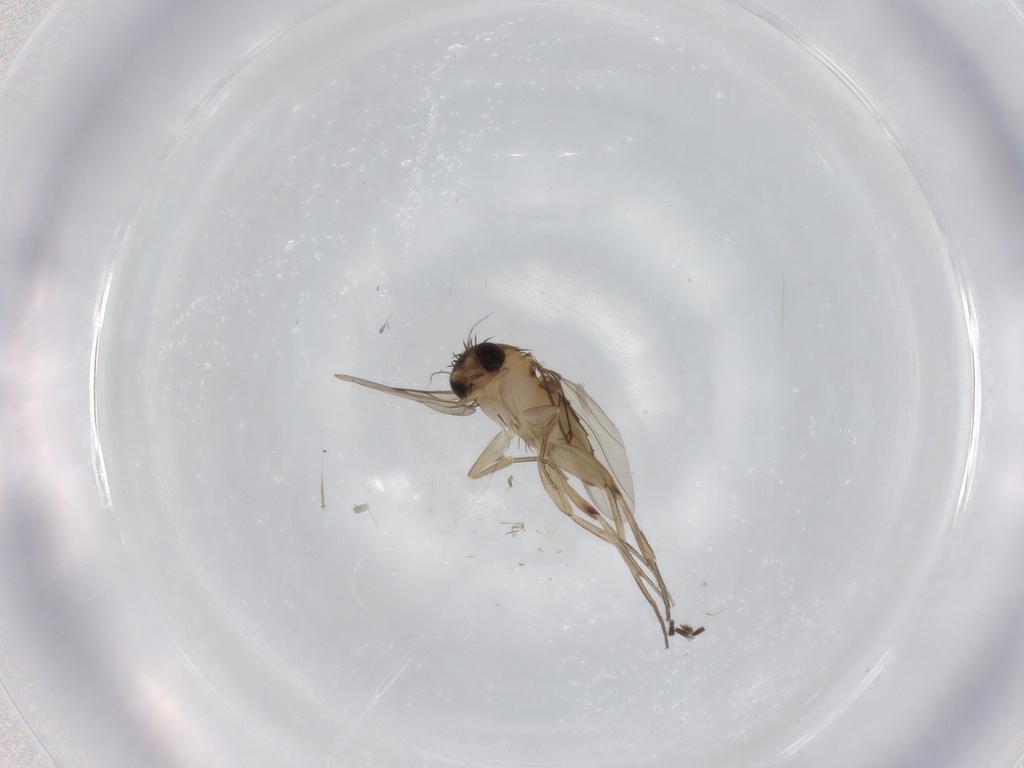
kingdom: Animalia
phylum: Arthropoda
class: Insecta
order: Diptera
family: Phoridae
